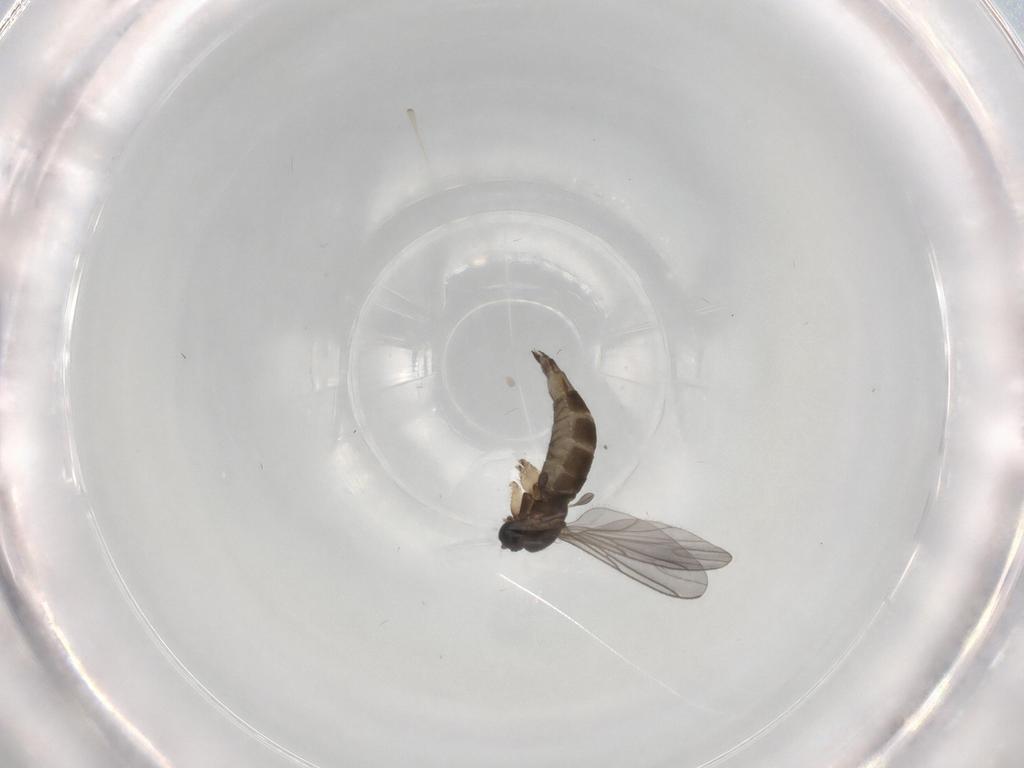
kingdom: Animalia
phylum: Arthropoda
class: Insecta
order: Diptera
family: Sciaridae
